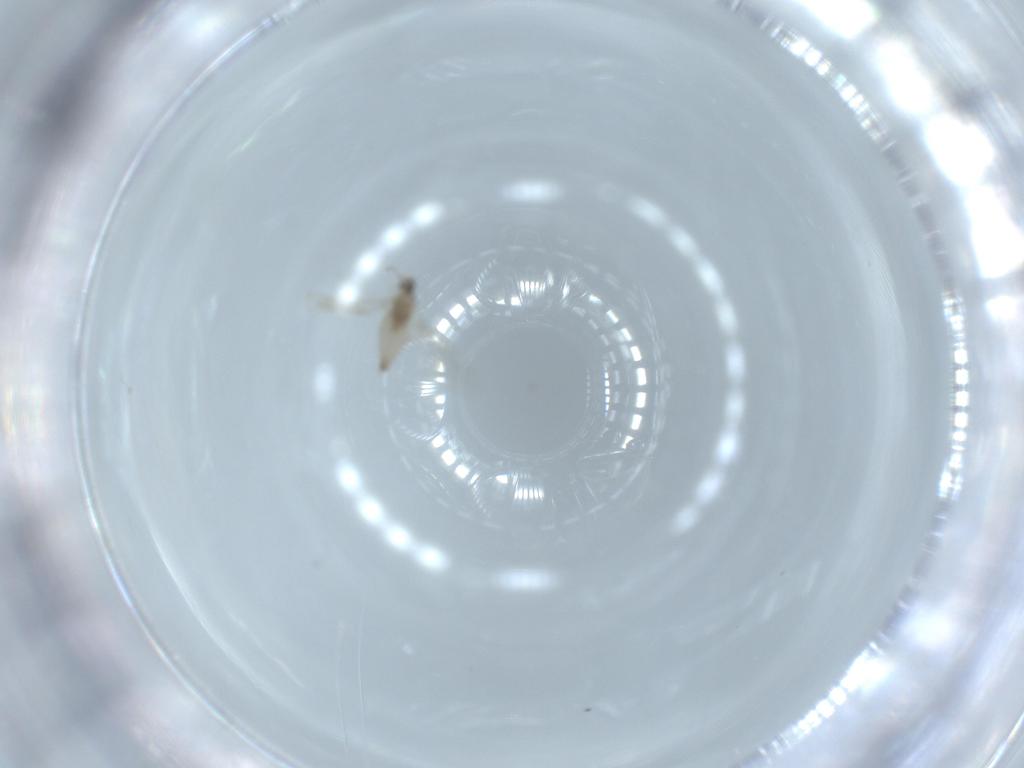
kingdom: Animalia
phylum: Arthropoda
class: Insecta
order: Diptera
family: Cecidomyiidae
